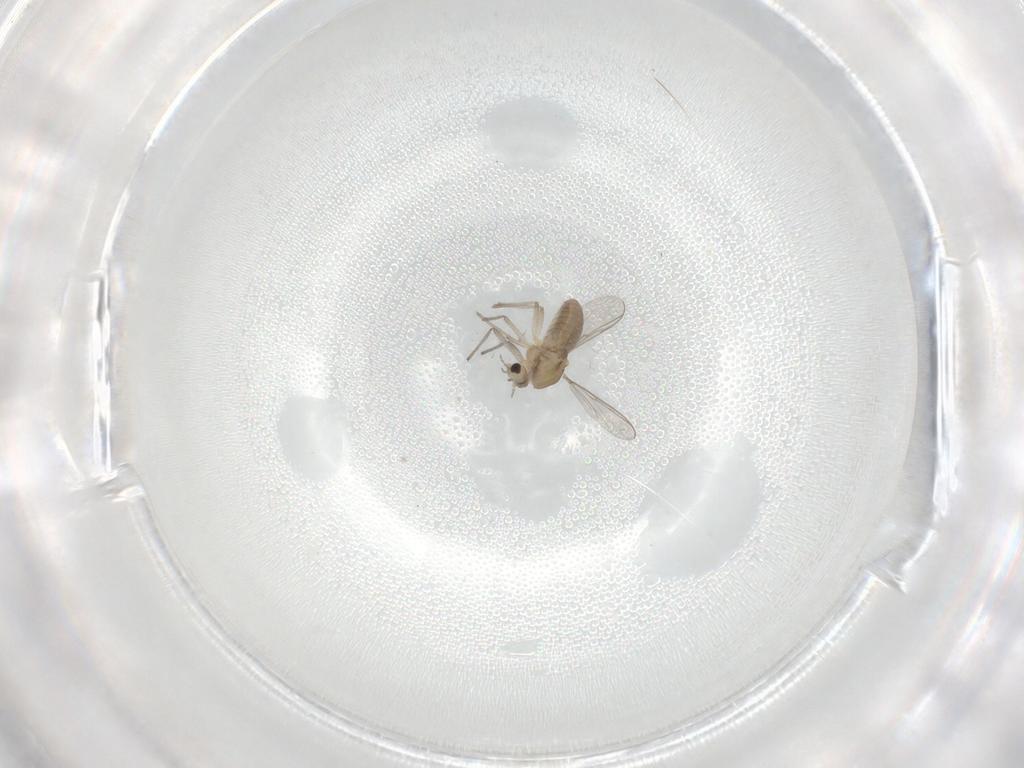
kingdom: Animalia
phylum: Arthropoda
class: Insecta
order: Diptera
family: Chironomidae
